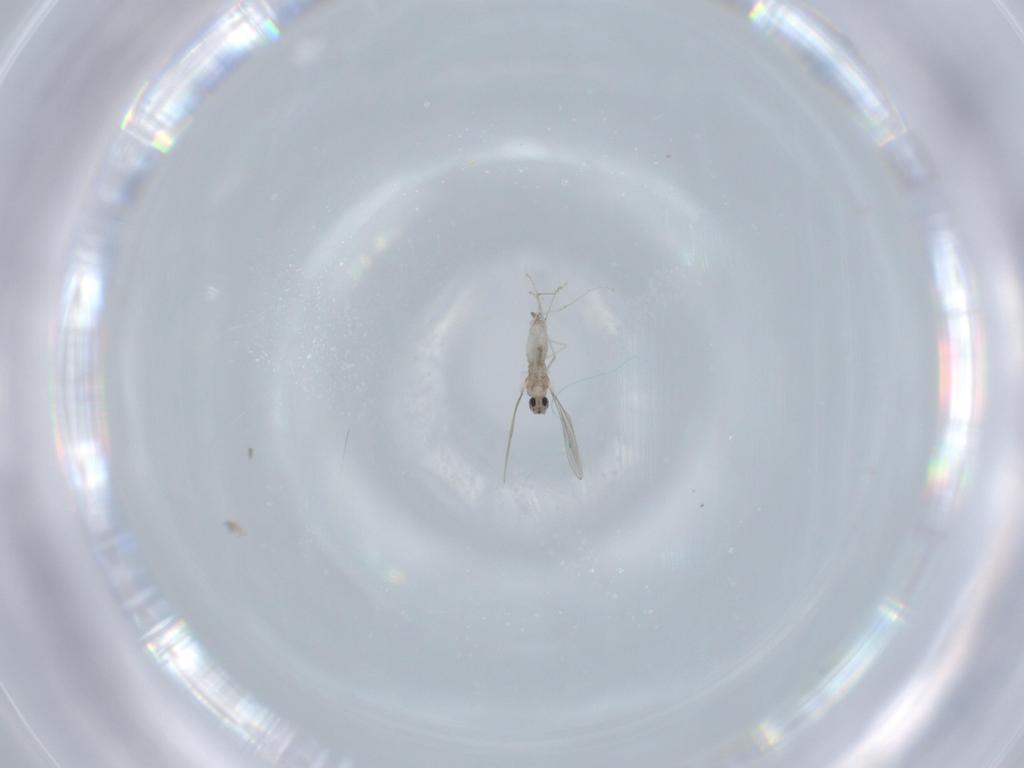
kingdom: Animalia
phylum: Arthropoda
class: Insecta
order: Diptera
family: Cecidomyiidae
